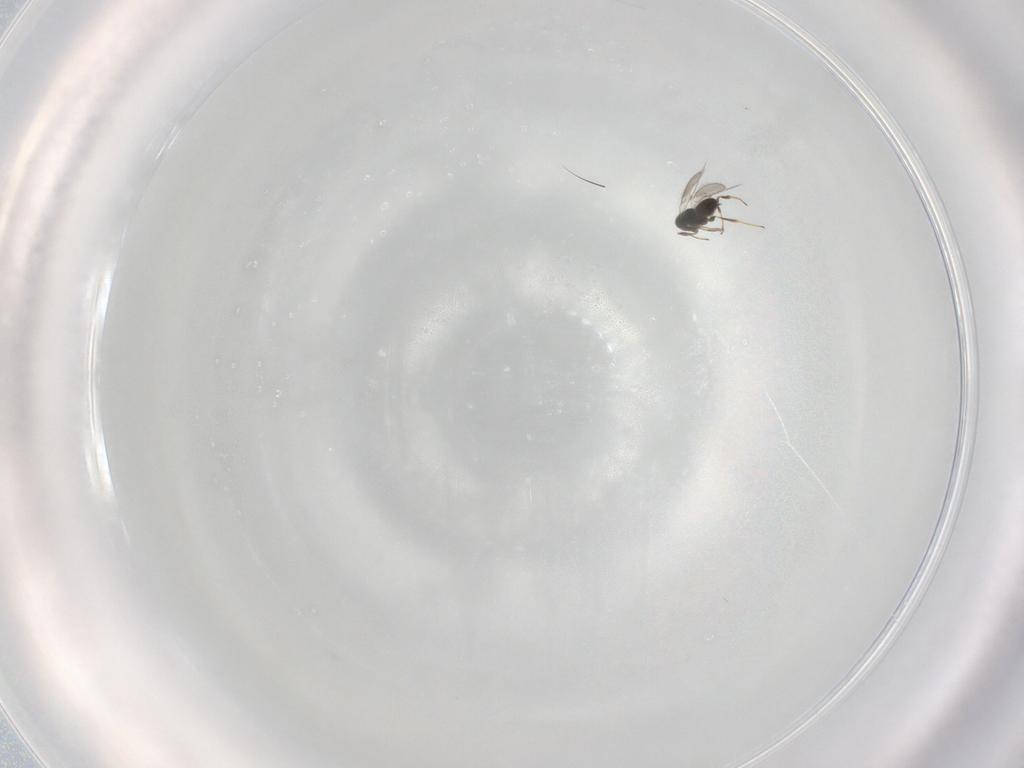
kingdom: Animalia
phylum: Arthropoda
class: Insecta
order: Hymenoptera
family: Scelionidae
